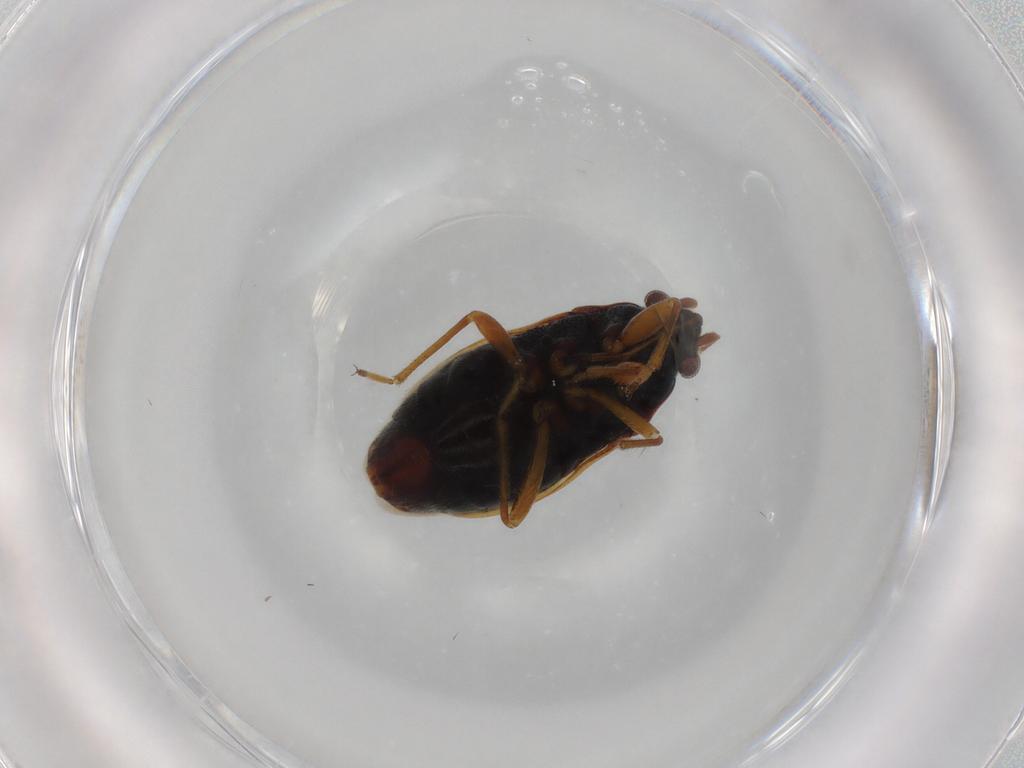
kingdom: Animalia
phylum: Arthropoda
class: Insecta
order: Hemiptera
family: Rhyparochromidae
